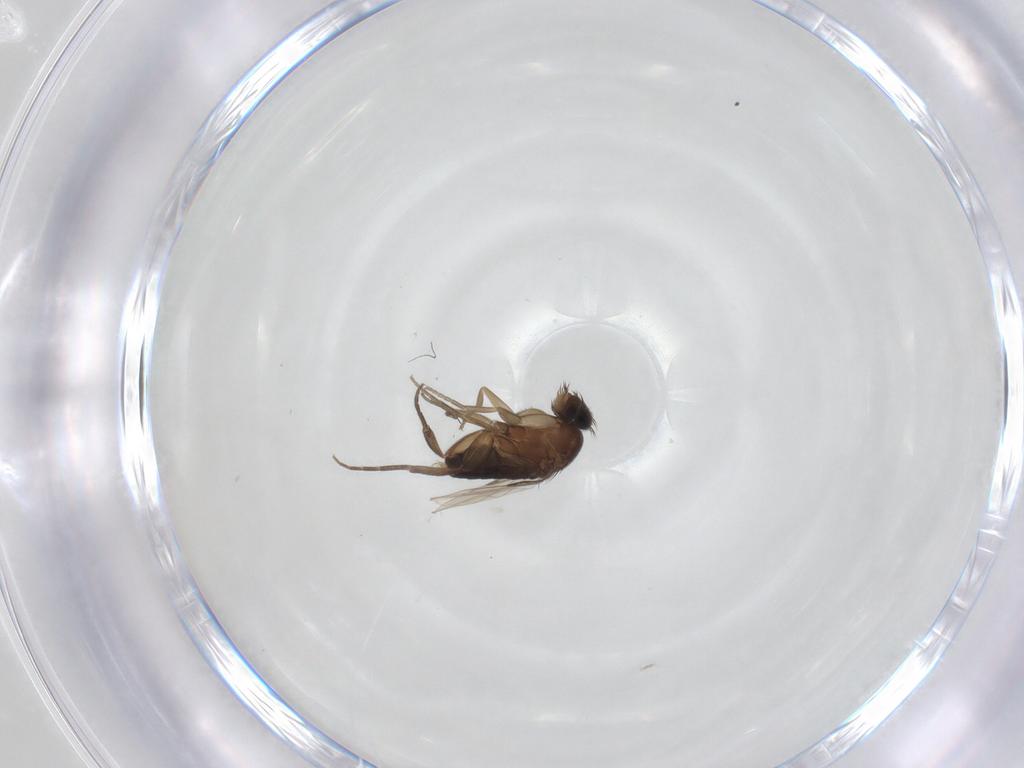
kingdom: Animalia
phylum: Arthropoda
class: Insecta
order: Diptera
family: Phoridae
